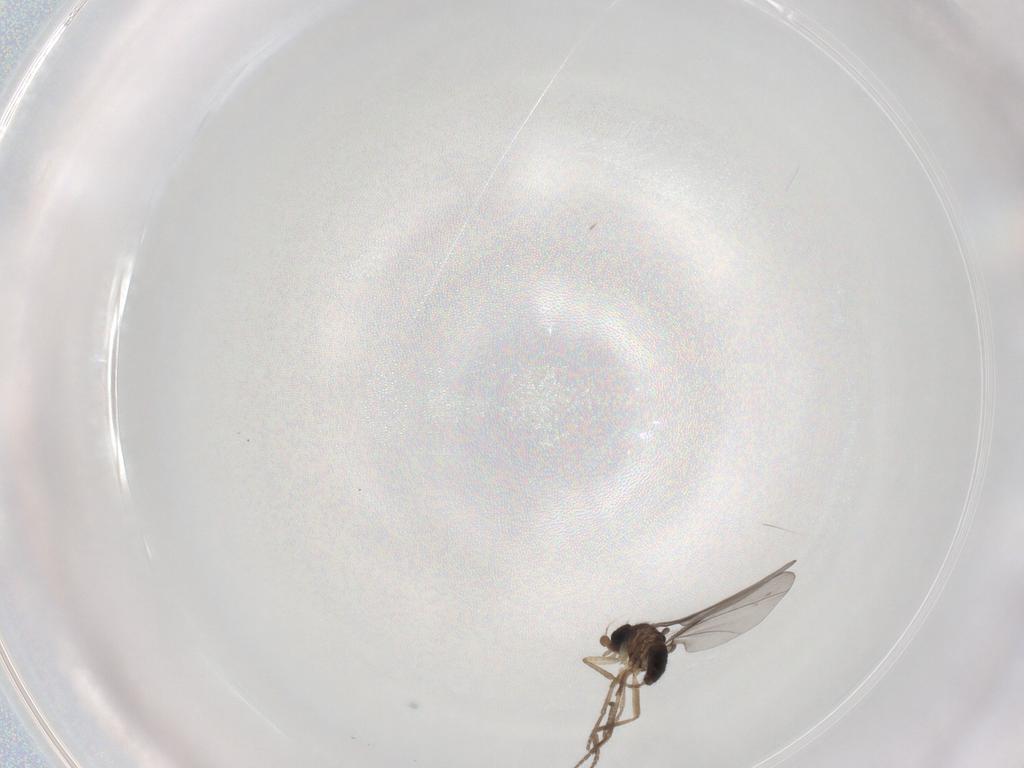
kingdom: Animalia
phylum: Arthropoda
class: Insecta
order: Diptera
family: Phoridae
